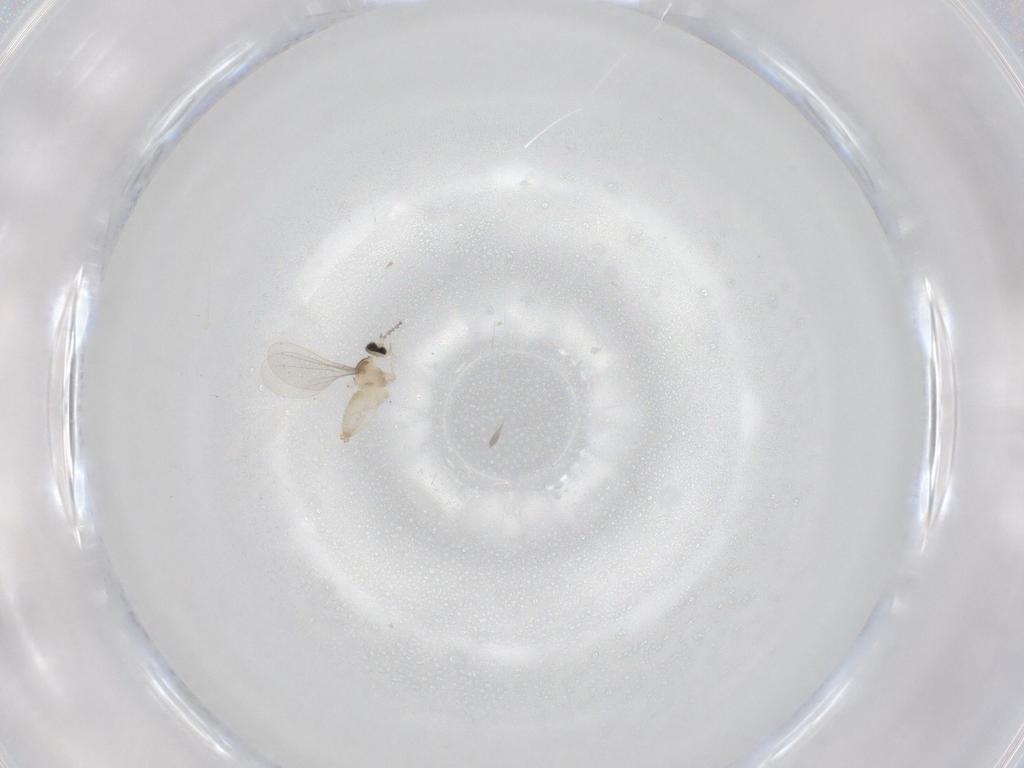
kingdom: Animalia
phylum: Arthropoda
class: Insecta
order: Diptera
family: Cecidomyiidae
